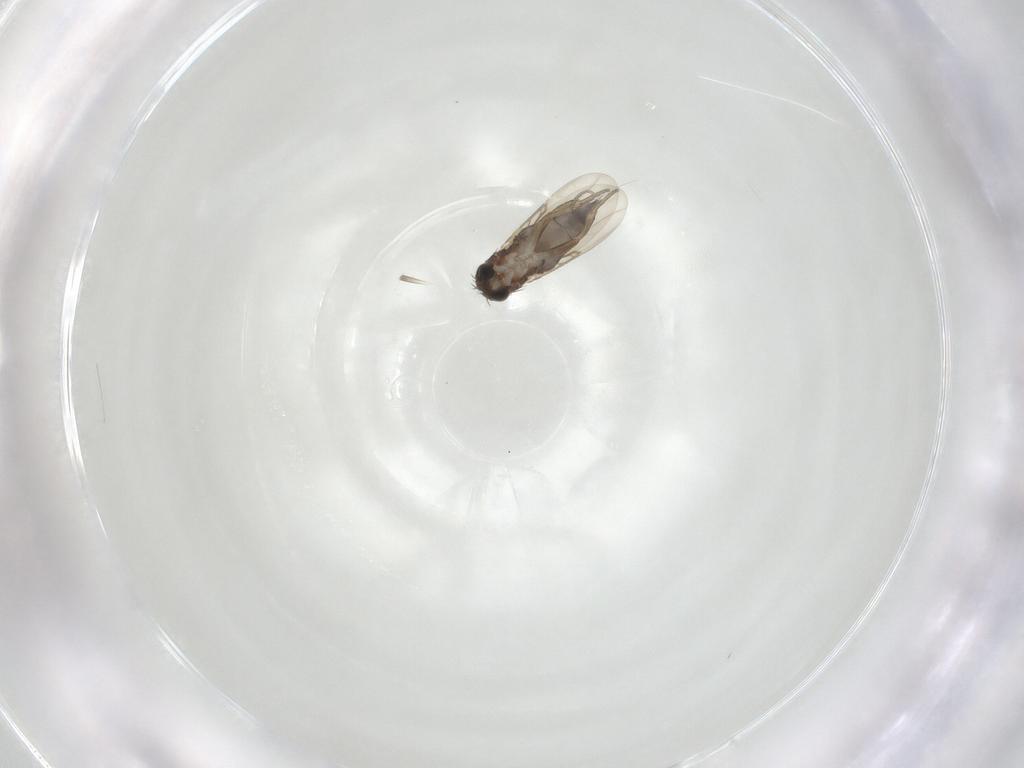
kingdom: Animalia
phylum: Arthropoda
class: Insecta
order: Diptera
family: Phoridae
